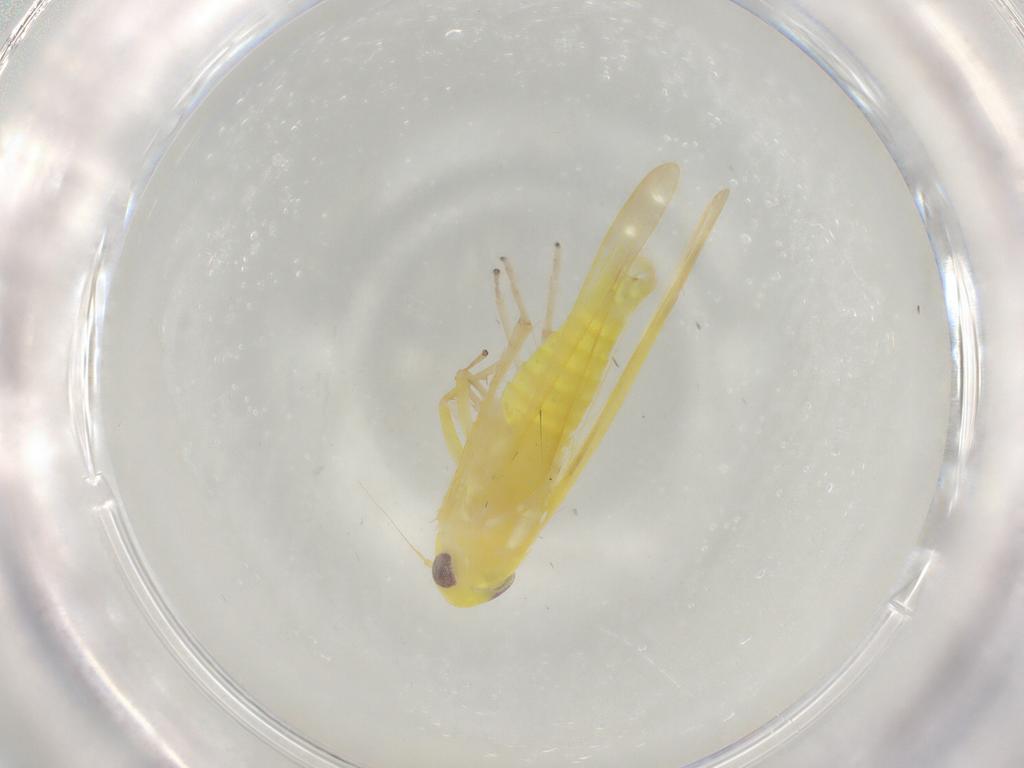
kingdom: Animalia
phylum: Arthropoda
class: Insecta
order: Hemiptera
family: Cicadellidae
